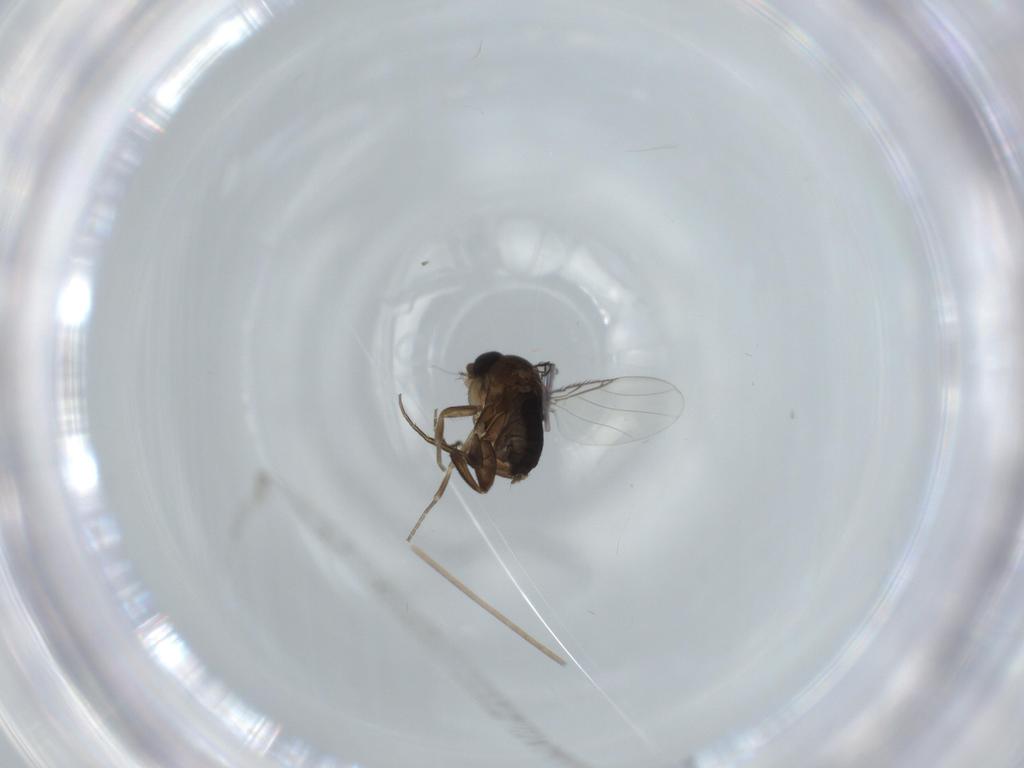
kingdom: Animalia
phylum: Arthropoda
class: Insecta
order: Diptera
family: Phoridae
